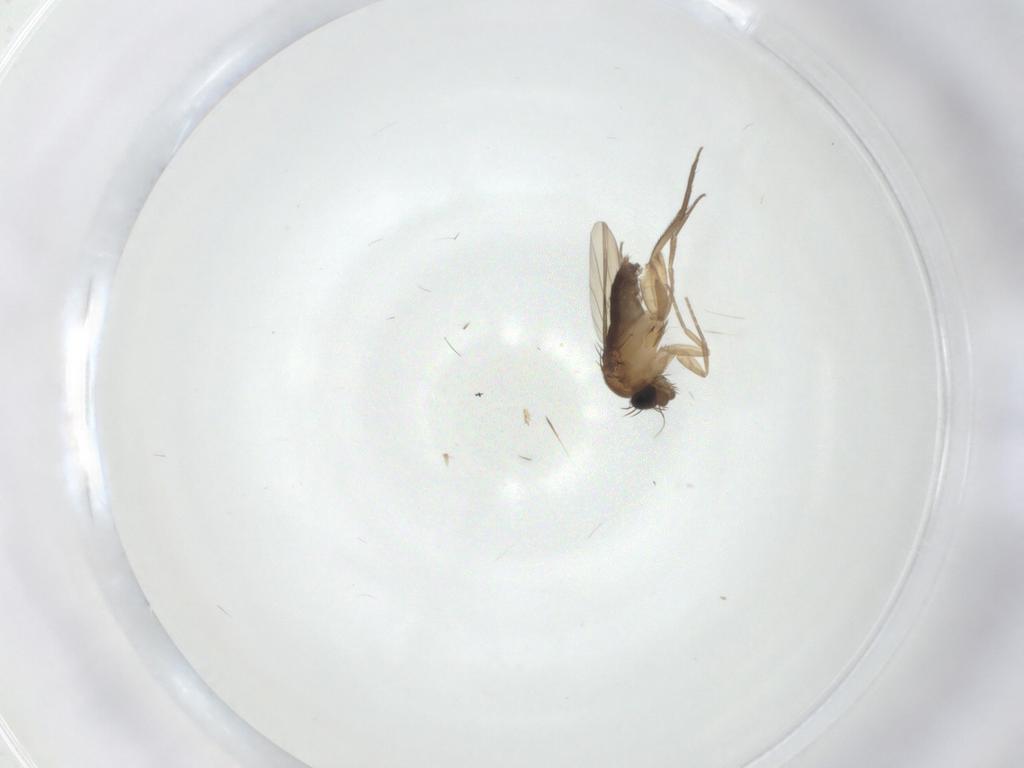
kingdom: Animalia
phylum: Arthropoda
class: Insecta
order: Diptera
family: Phoridae
